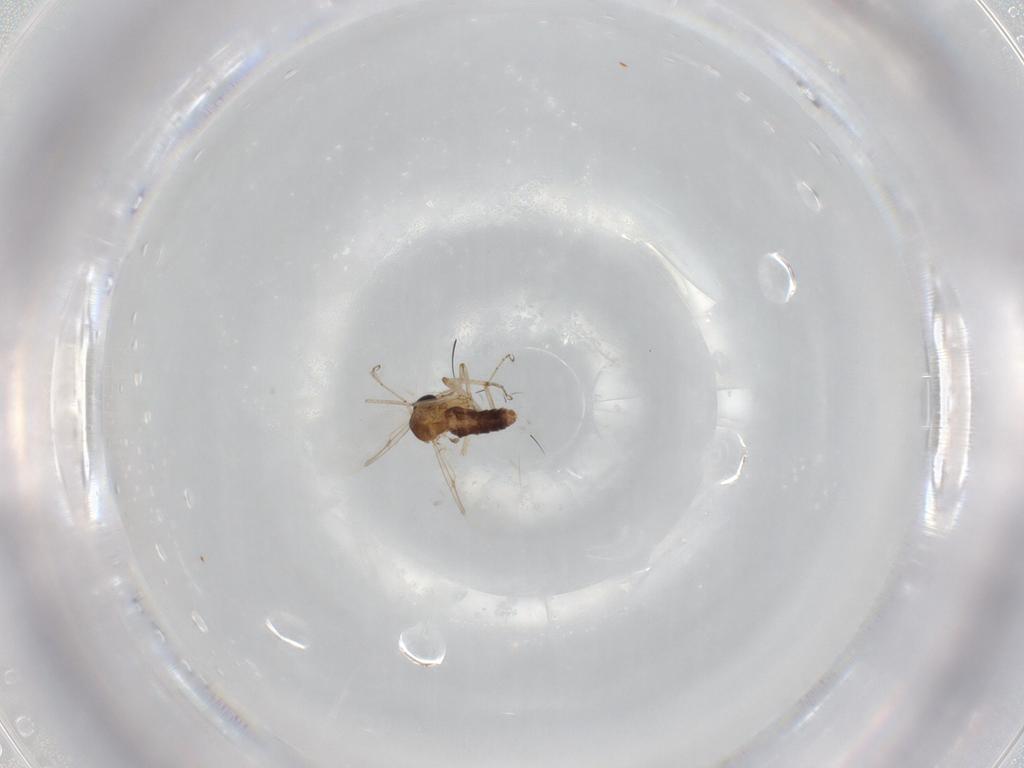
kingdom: Animalia
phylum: Arthropoda
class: Insecta
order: Diptera
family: Ceratopogonidae
